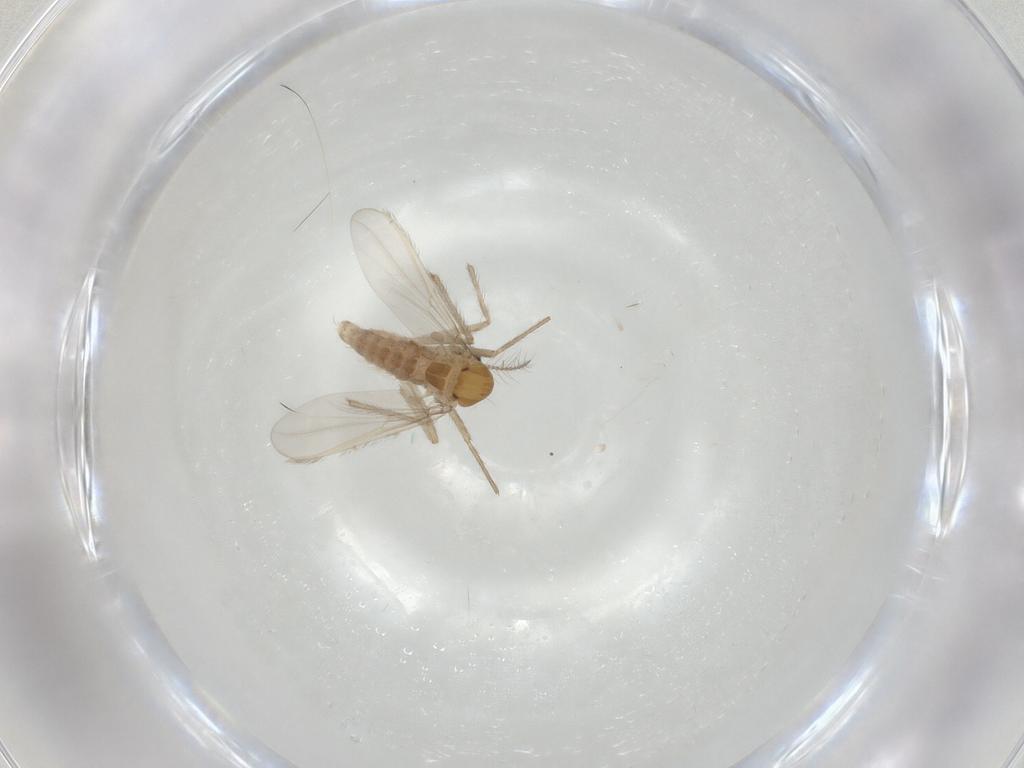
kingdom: Animalia
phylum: Arthropoda
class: Insecta
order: Diptera
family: Chironomidae
